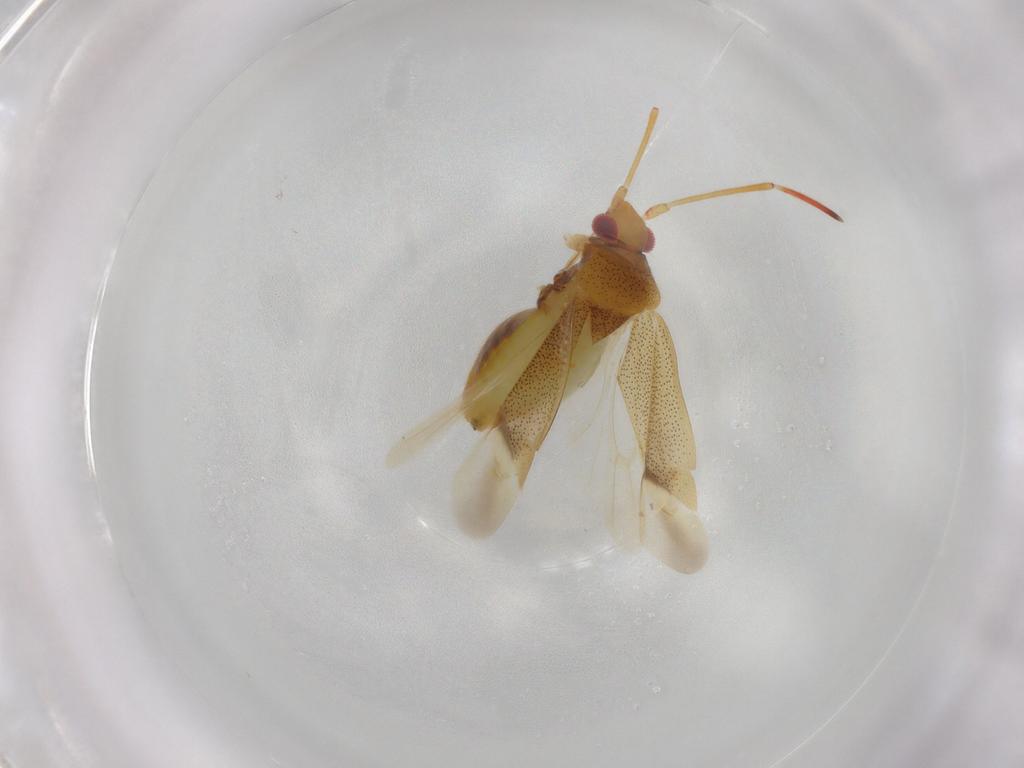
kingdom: Animalia
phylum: Arthropoda
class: Insecta
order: Hemiptera
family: Miridae
